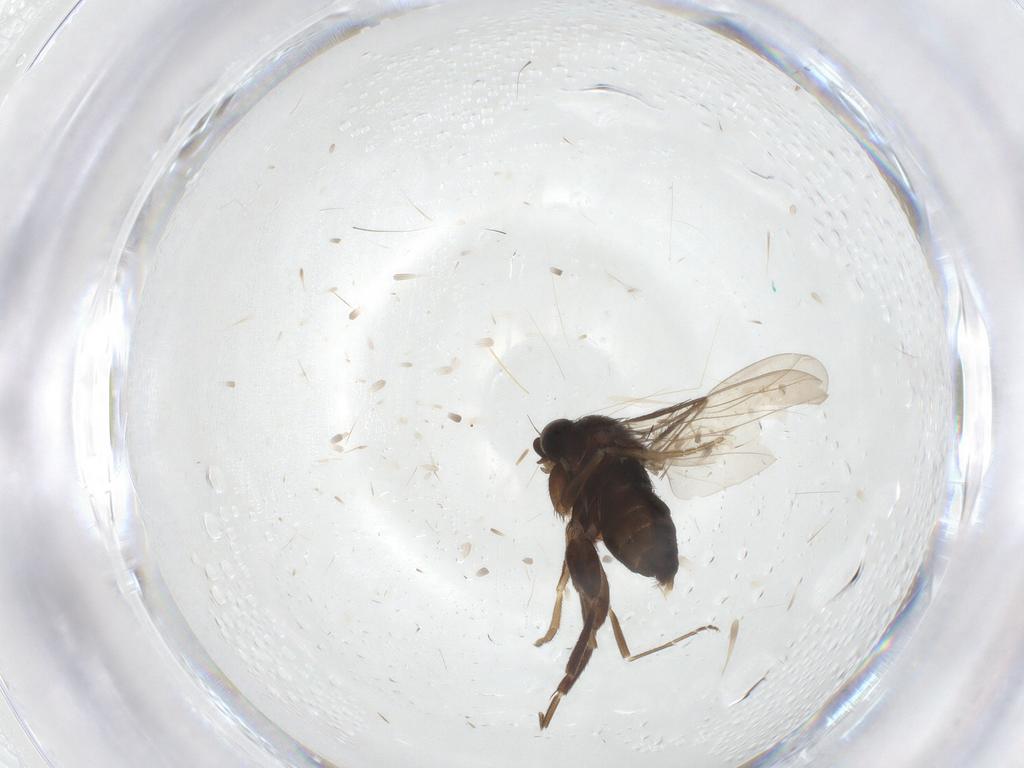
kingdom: Animalia
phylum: Arthropoda
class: Insecta
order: Diptera
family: Phoridae
